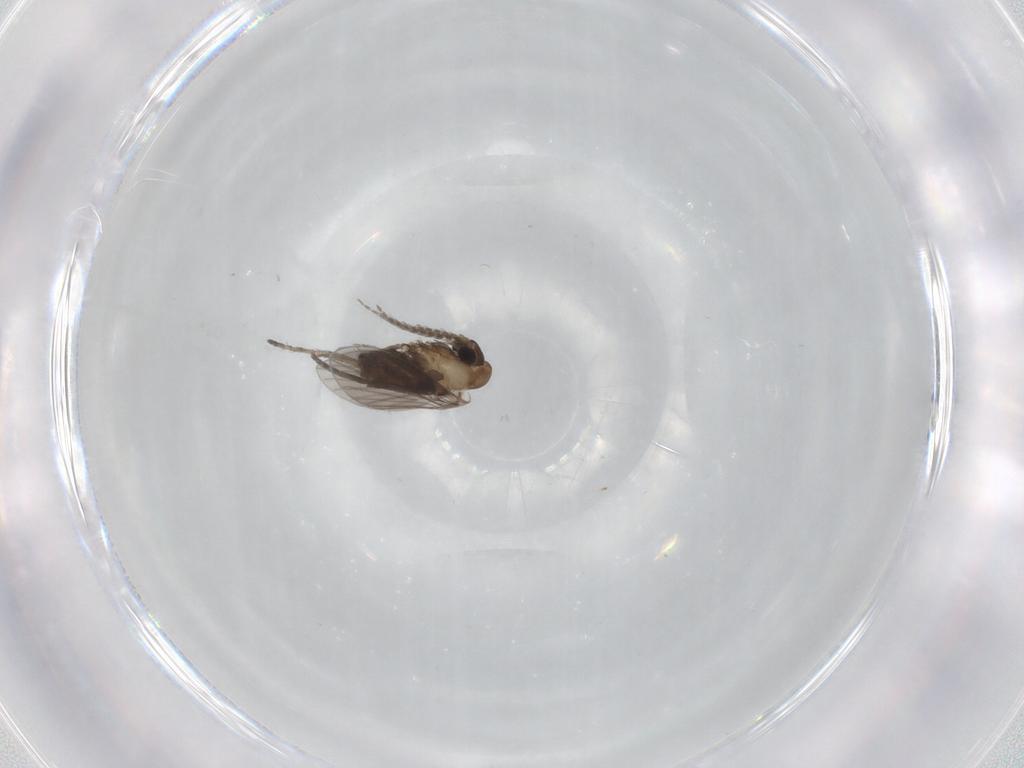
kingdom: Animalia
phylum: Arthropoda
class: Insecta
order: Diptera
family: Psychodidae
